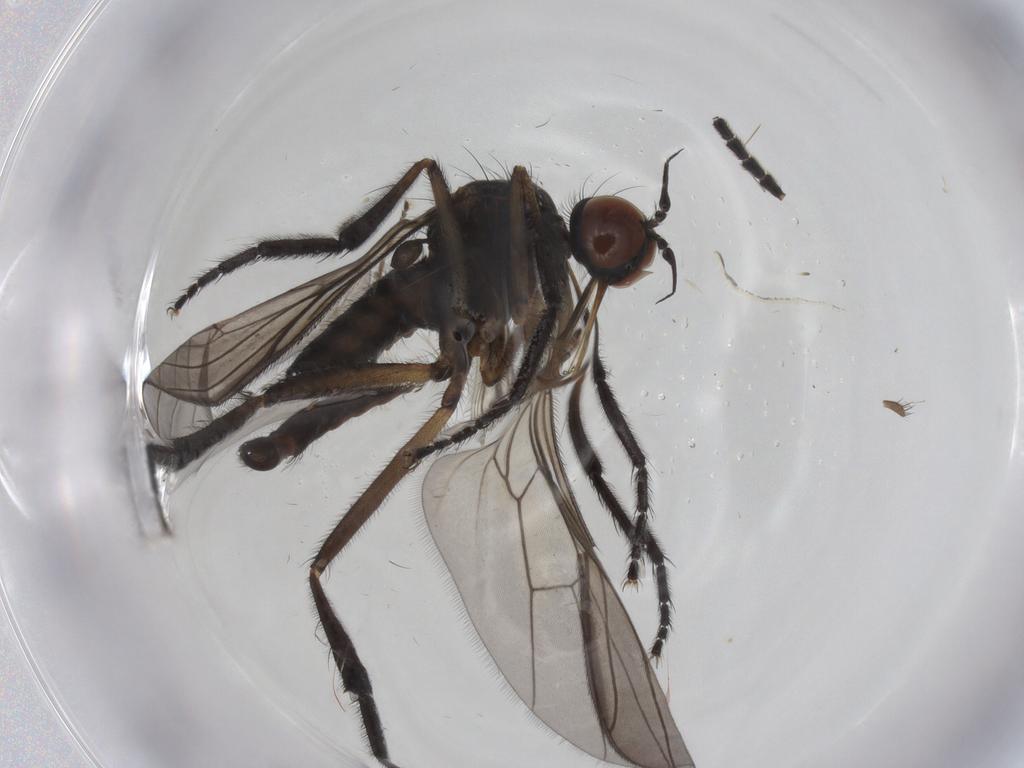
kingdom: Animalia
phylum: Arthropoda
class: Insecta
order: Diptera
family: Empididae
